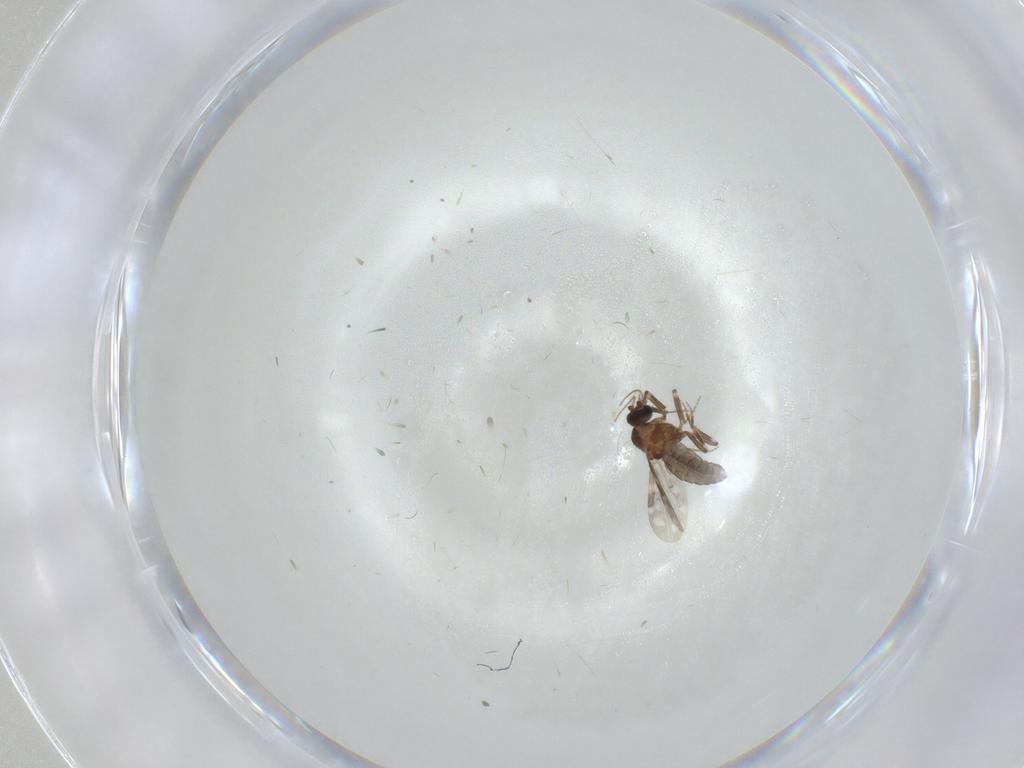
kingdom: Animalia
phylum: Arthropoda
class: Insecta
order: Diptera
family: Ceratopogonidae
